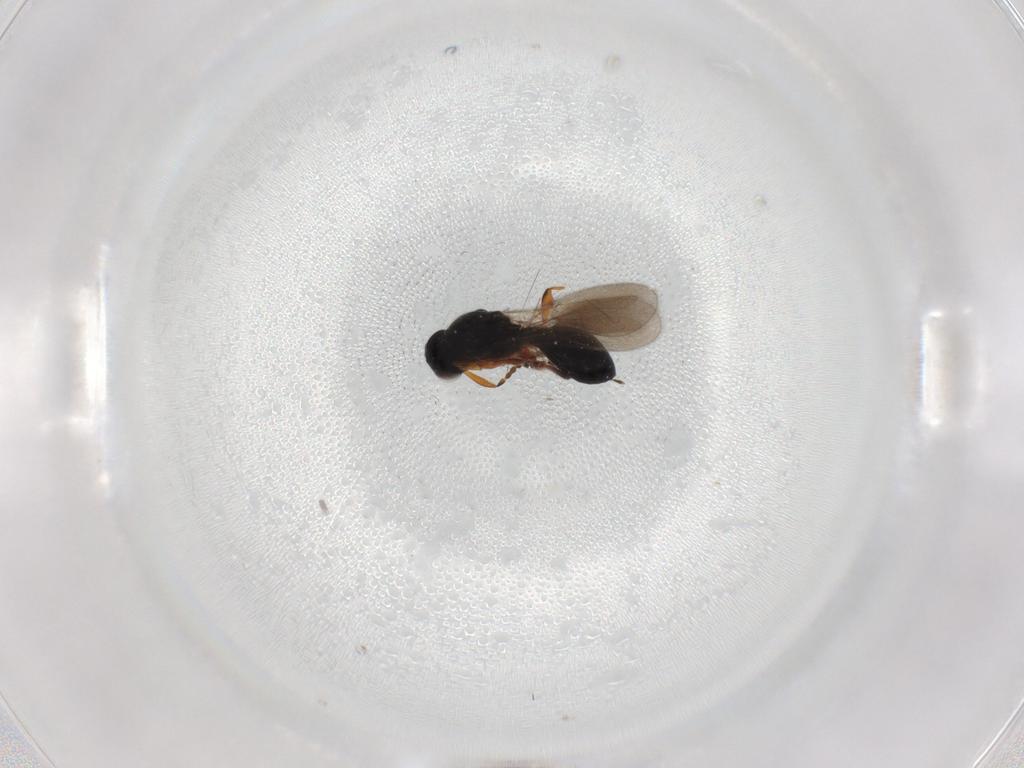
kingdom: Animalia
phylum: Arthropoda
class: Insecta
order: Hymenoptera
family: Platygastridae
